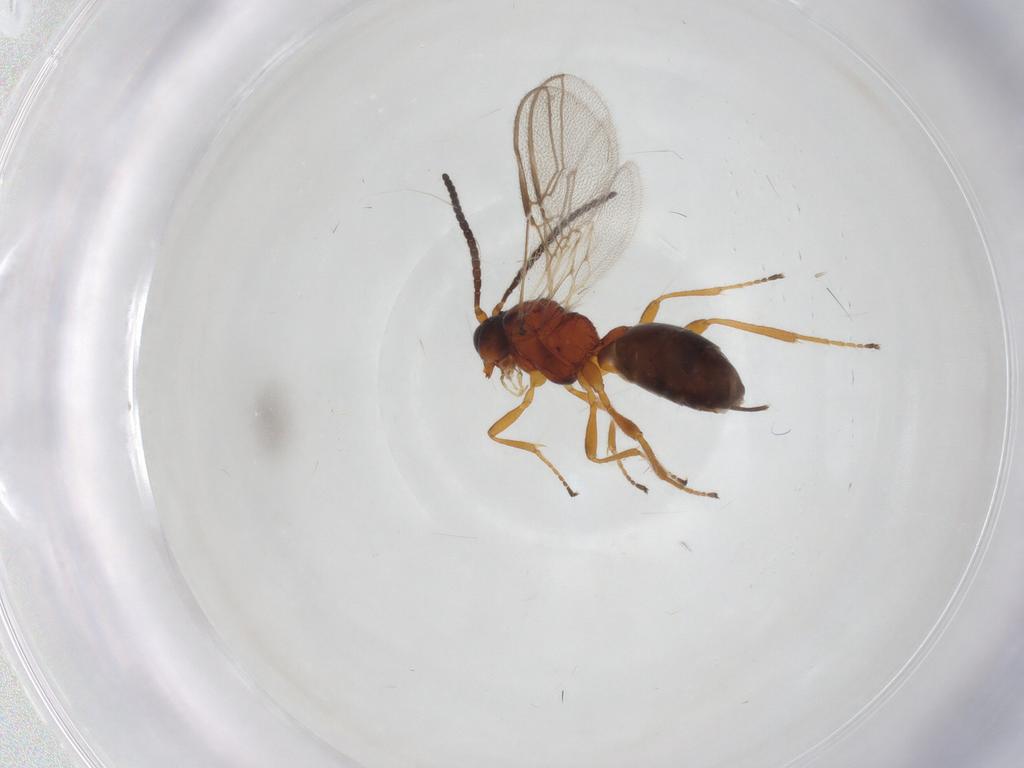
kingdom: Animalia
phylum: Arthropoda
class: Insecta
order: Hymenoptera
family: Braconidae
